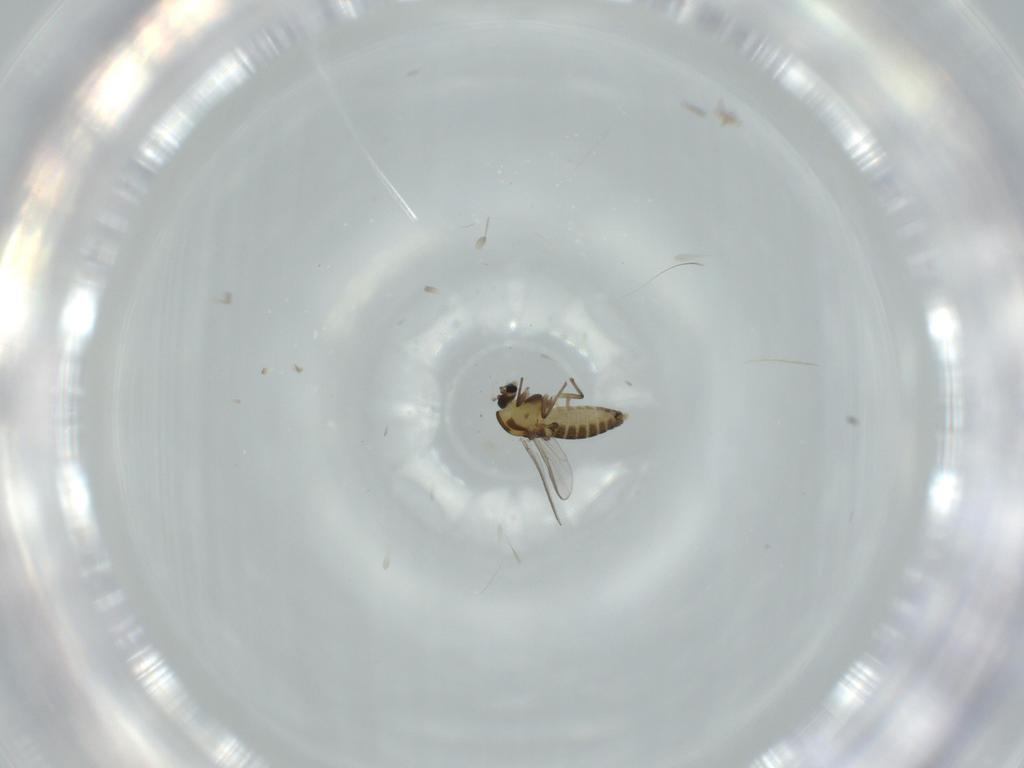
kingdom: Animalia
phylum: Arthropoda
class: Insecta
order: Diptera
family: Chironomidae
